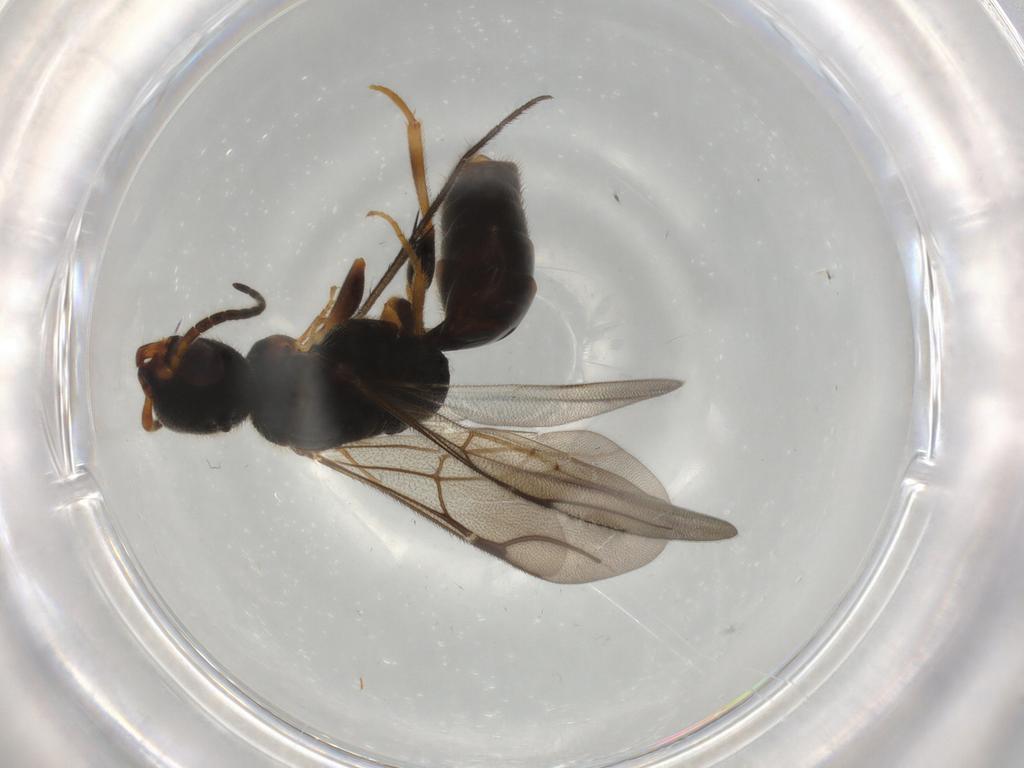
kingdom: Animalia
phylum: Arthropoda
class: Insecta
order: Hymenoptera
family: Bethylidae
